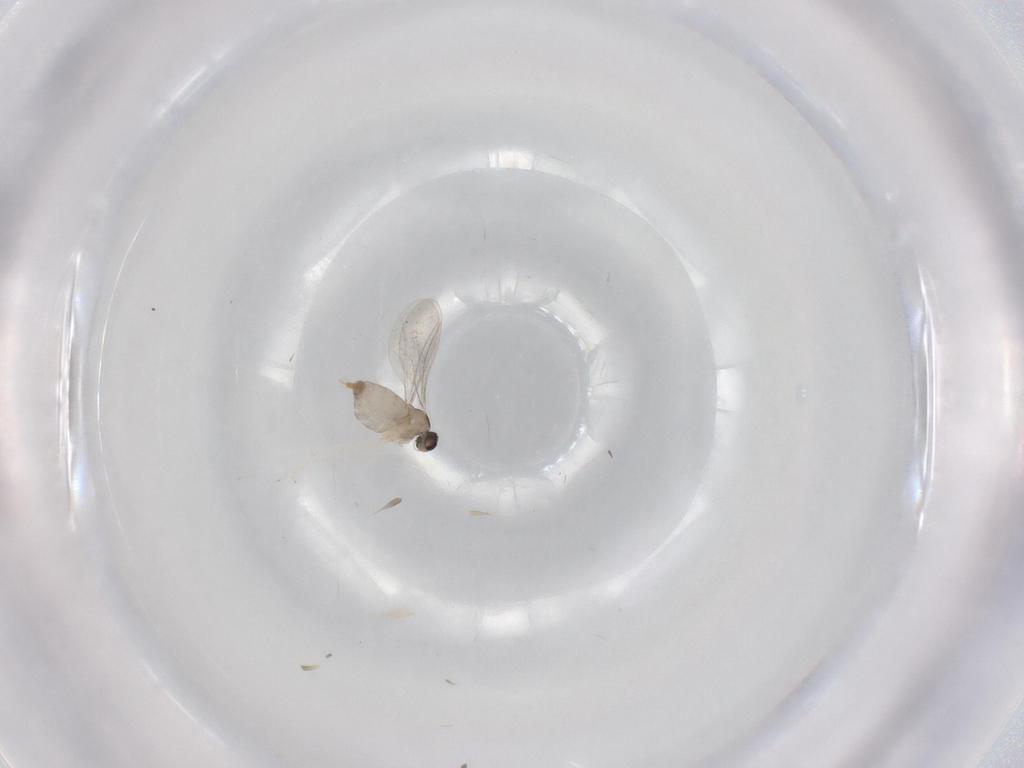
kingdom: Animalia
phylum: Arthropoda
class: Insecta
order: Diptera
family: Cecidomyiidae
